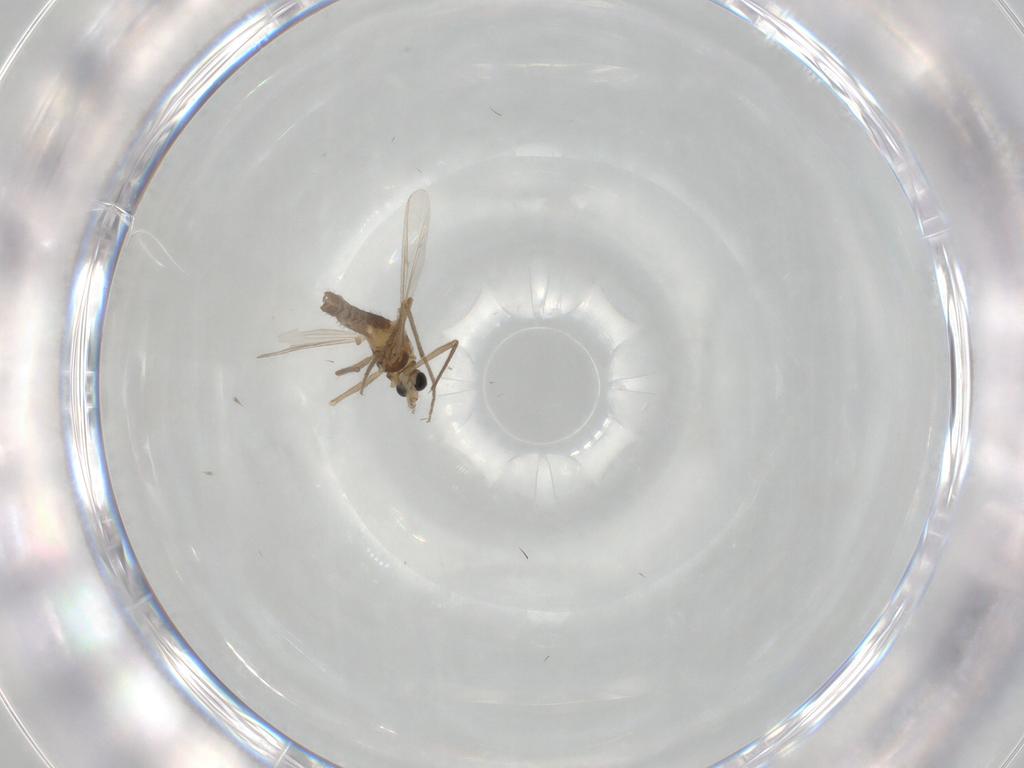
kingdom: Animalia
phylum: Arthropoda
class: Insecta
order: Diptera
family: Chironomidae
